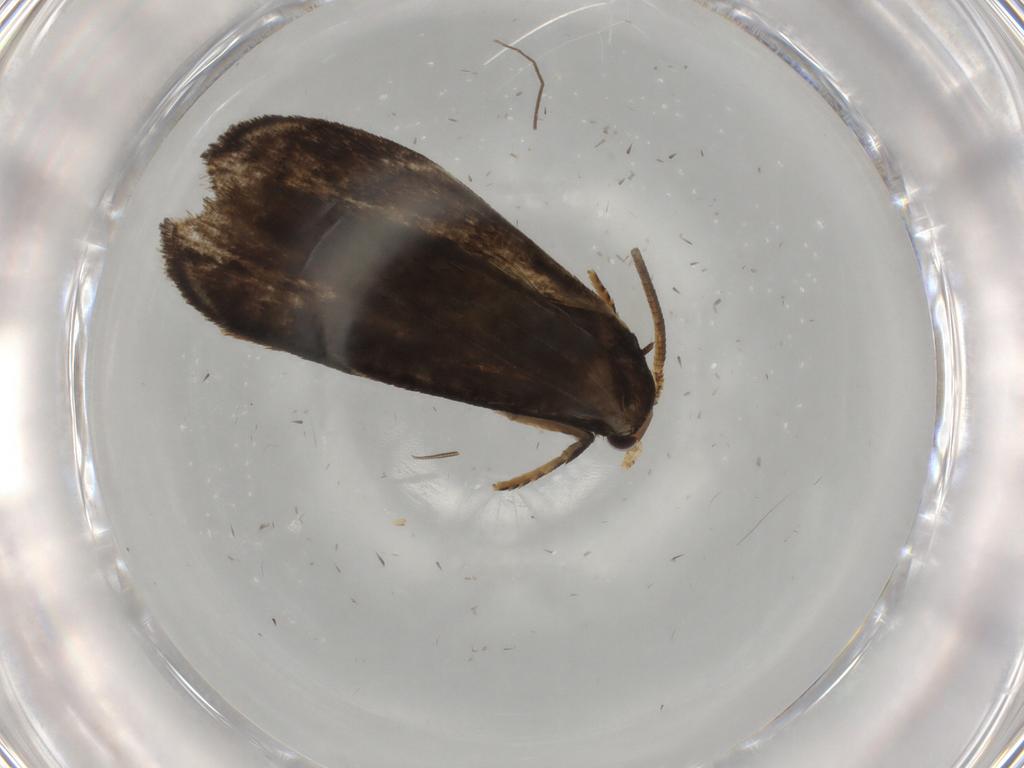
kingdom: Animalia
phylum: Arthropoda
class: Insecta
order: Lepidoptera
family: Tineidae
